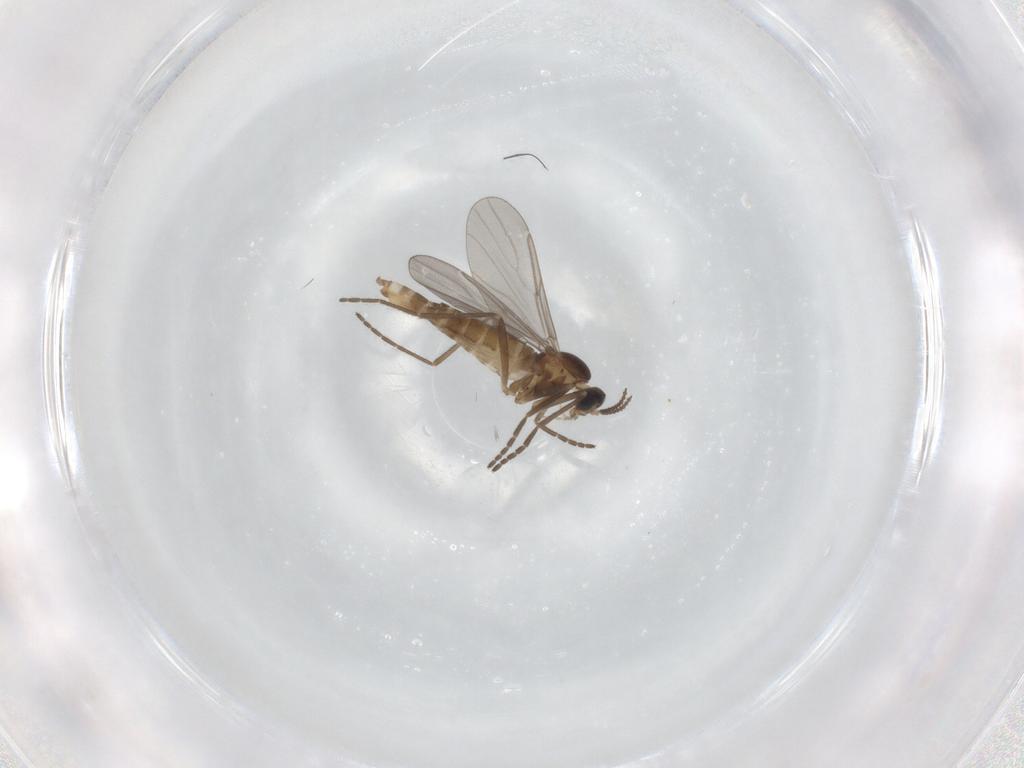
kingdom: Animalia
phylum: Arthropoda
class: Insecta
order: Diptera
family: Cecidomyiidae
